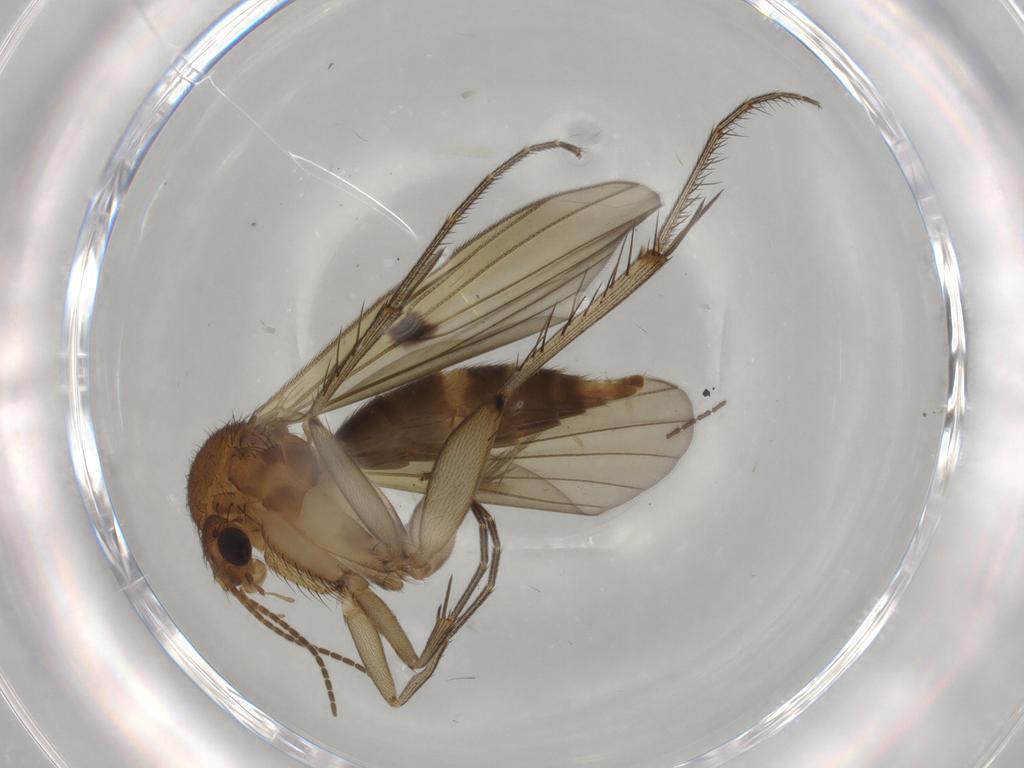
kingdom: Animalia
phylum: Arthropoda
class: Insecta
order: Diptera
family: Mycetophilidae
